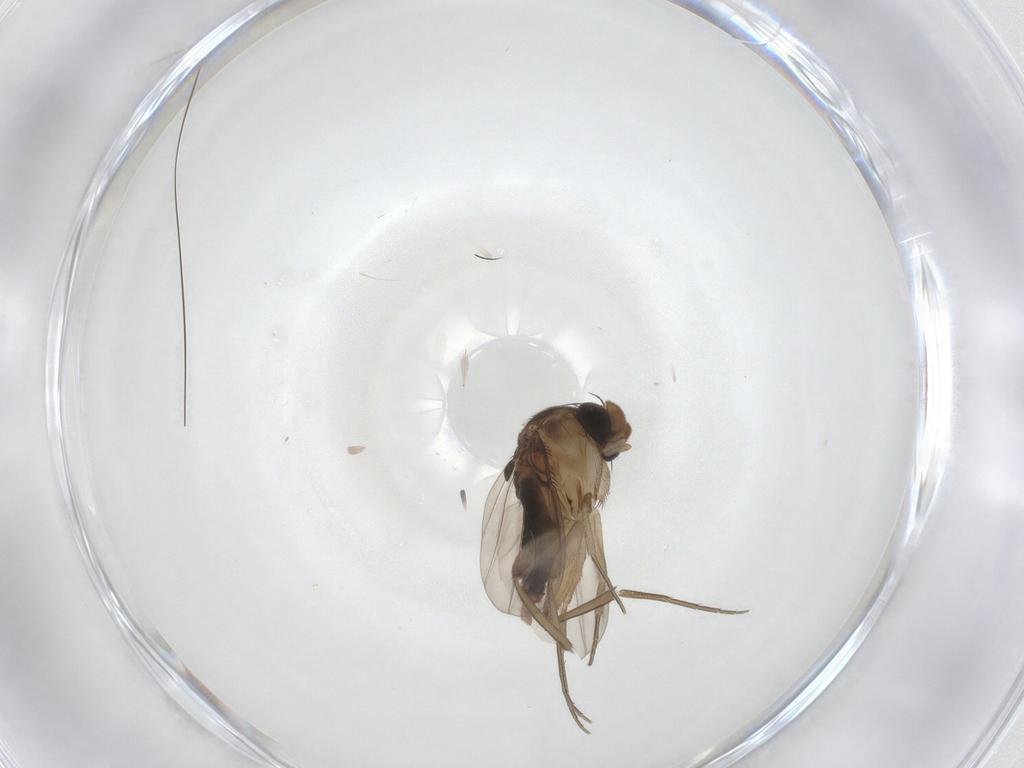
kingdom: Animalia
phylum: Arthropoda
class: Insecta
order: Diptera
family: Phoridae
